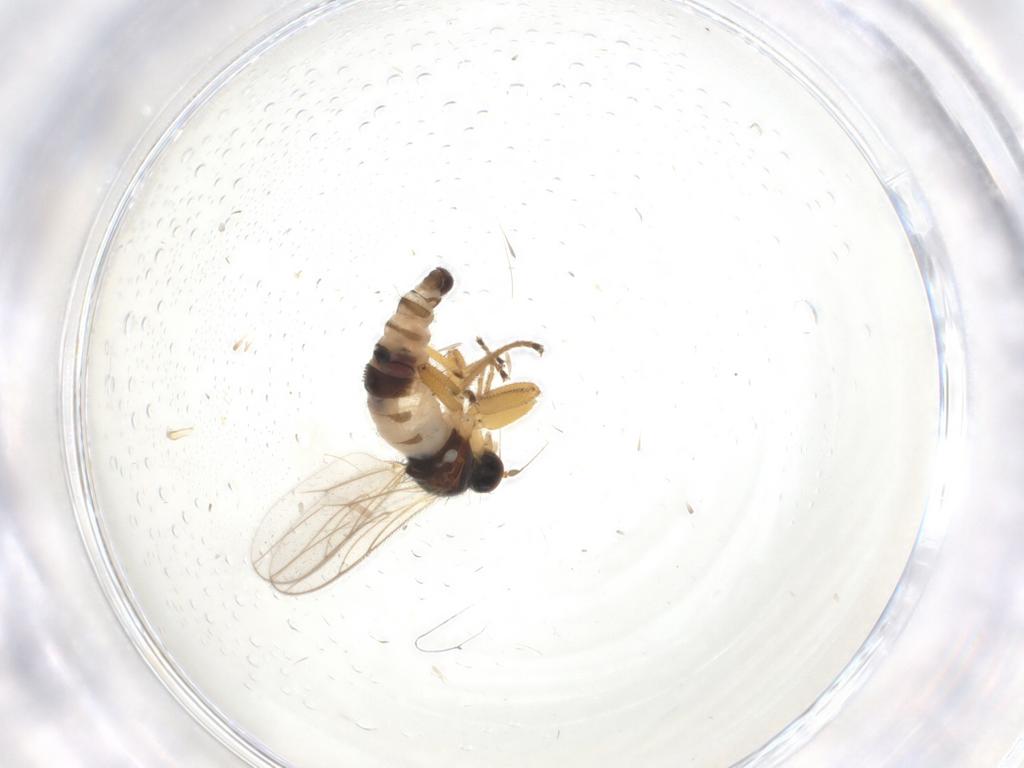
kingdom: Animalia
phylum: Arthropoda
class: Insecta
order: Diptera
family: Hybotidae
